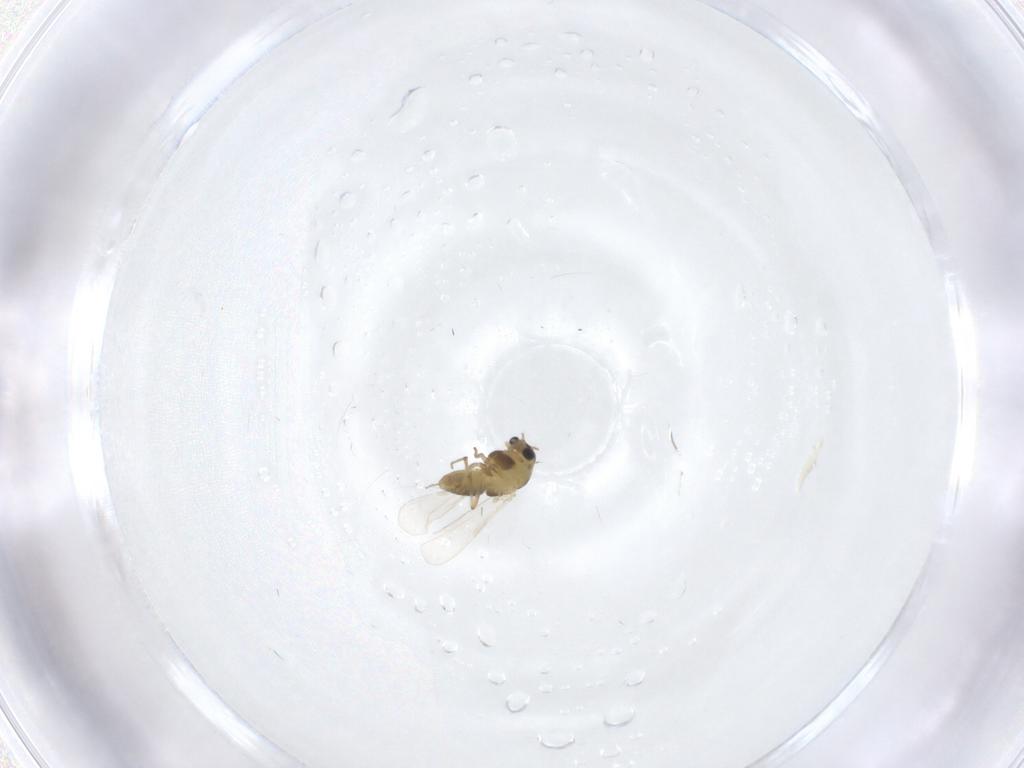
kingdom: Animalia
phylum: Arthropoda
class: Insecta
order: Diptera
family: Chironomidae
